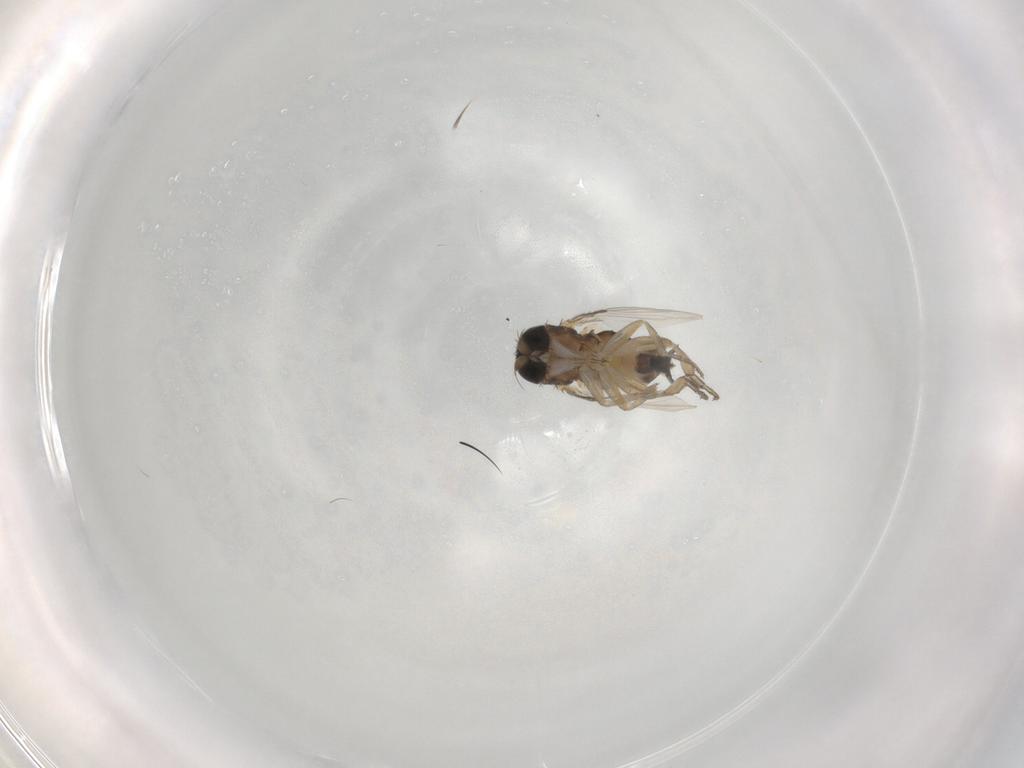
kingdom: Animalia
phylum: Arthropoda
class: Insecta
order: Diptera
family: Phoridae
